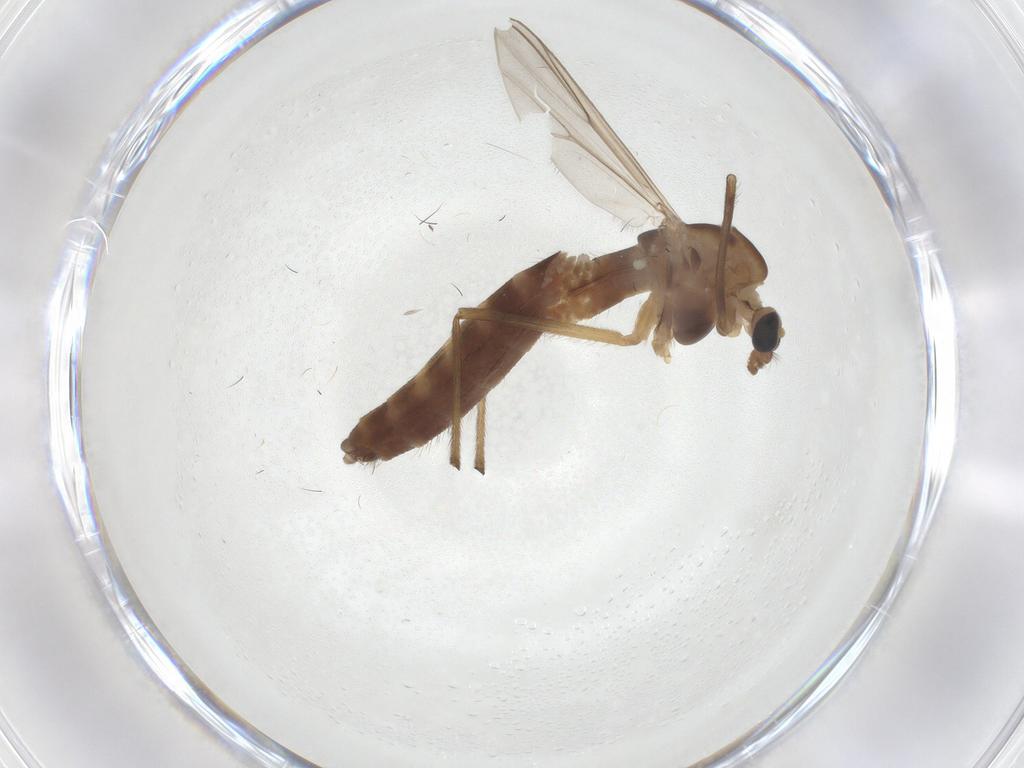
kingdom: Animalia
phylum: Arthropoda
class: Insecta
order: Diptera
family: Chironomidae
